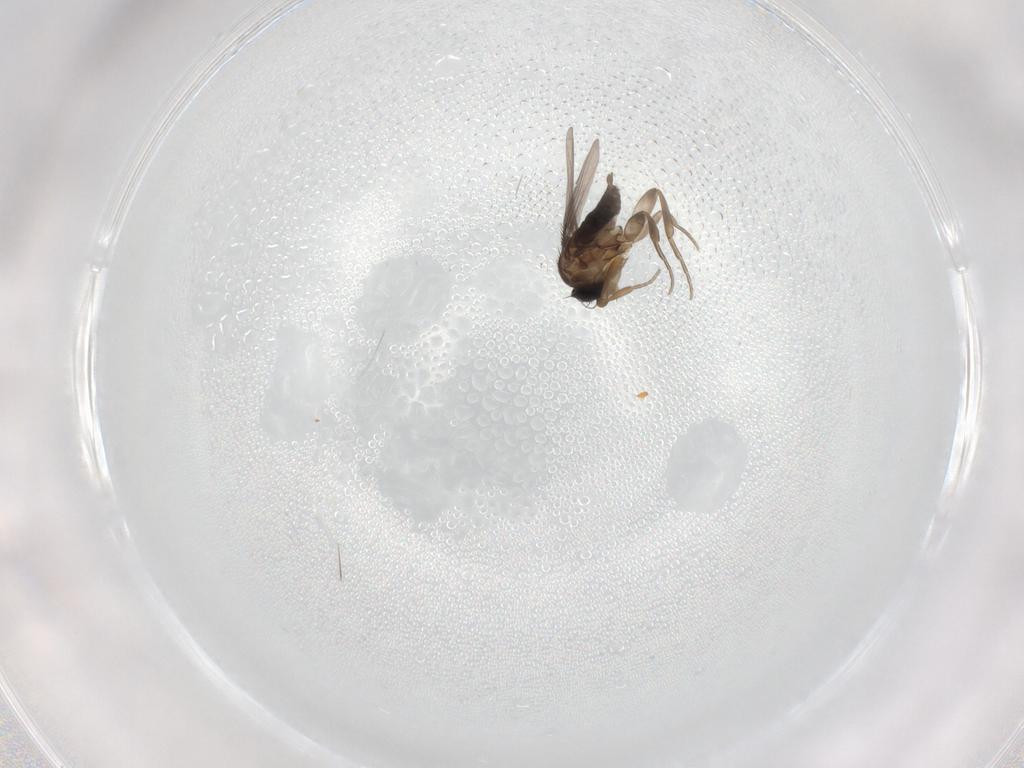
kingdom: Animalia
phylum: Arthropoda
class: Insecta
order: Diptera
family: Phoridae
